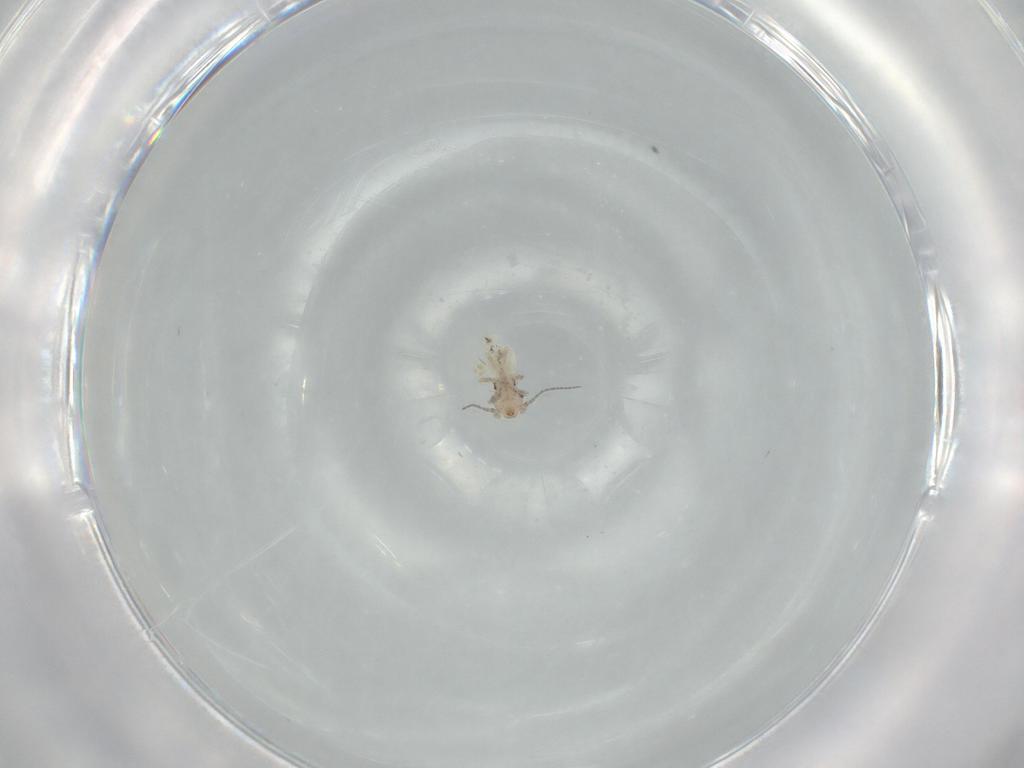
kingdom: Animalia
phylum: Arthropoda
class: Insecta
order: Psocodea
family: Lepidopsocidae
